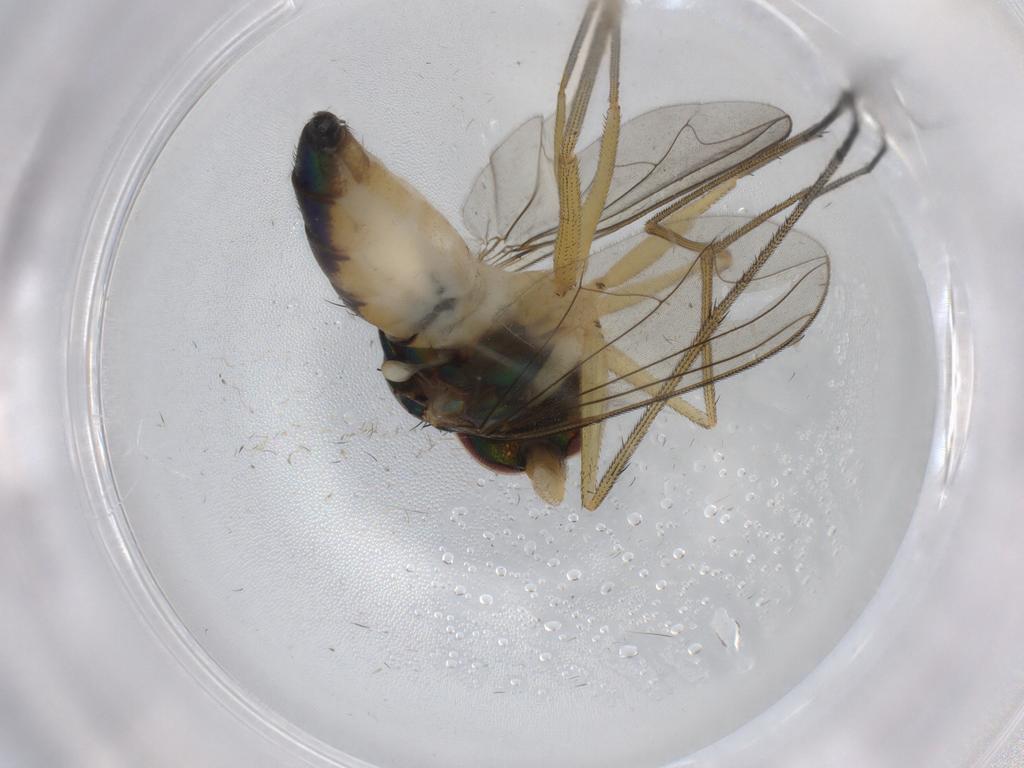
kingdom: Animalia
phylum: Arthropoda
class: Insecta
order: Diptera
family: Dolichopodidae
